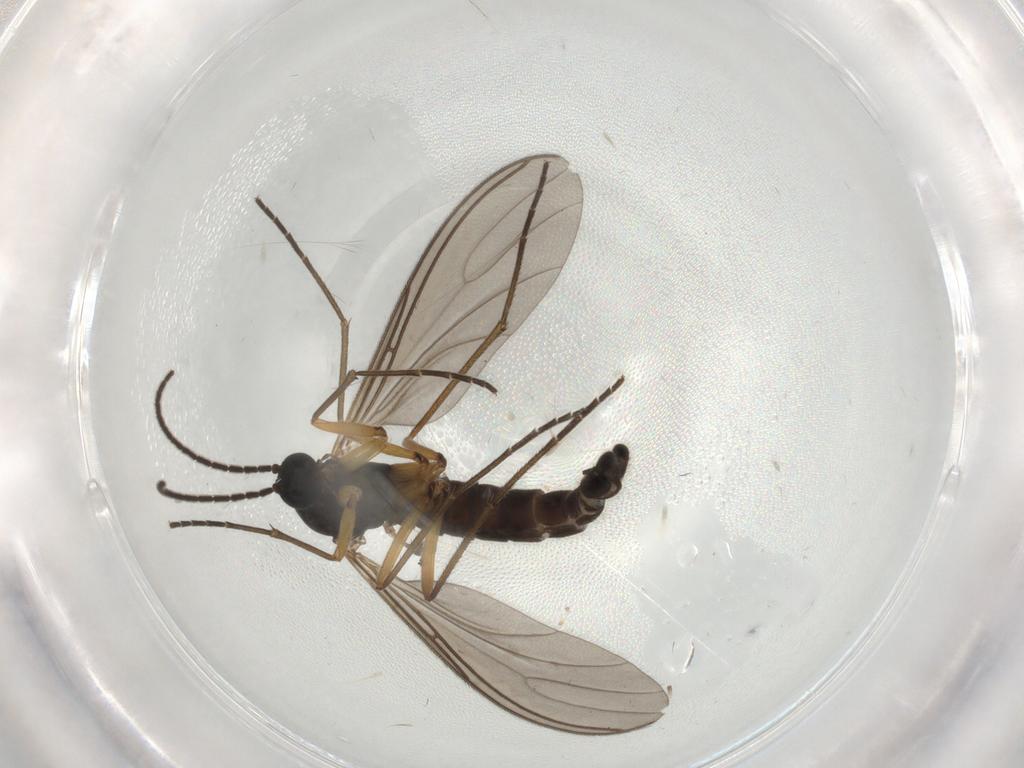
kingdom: Animalia
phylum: Arthropoda
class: Insecta
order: Diptera
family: Sciaridae
